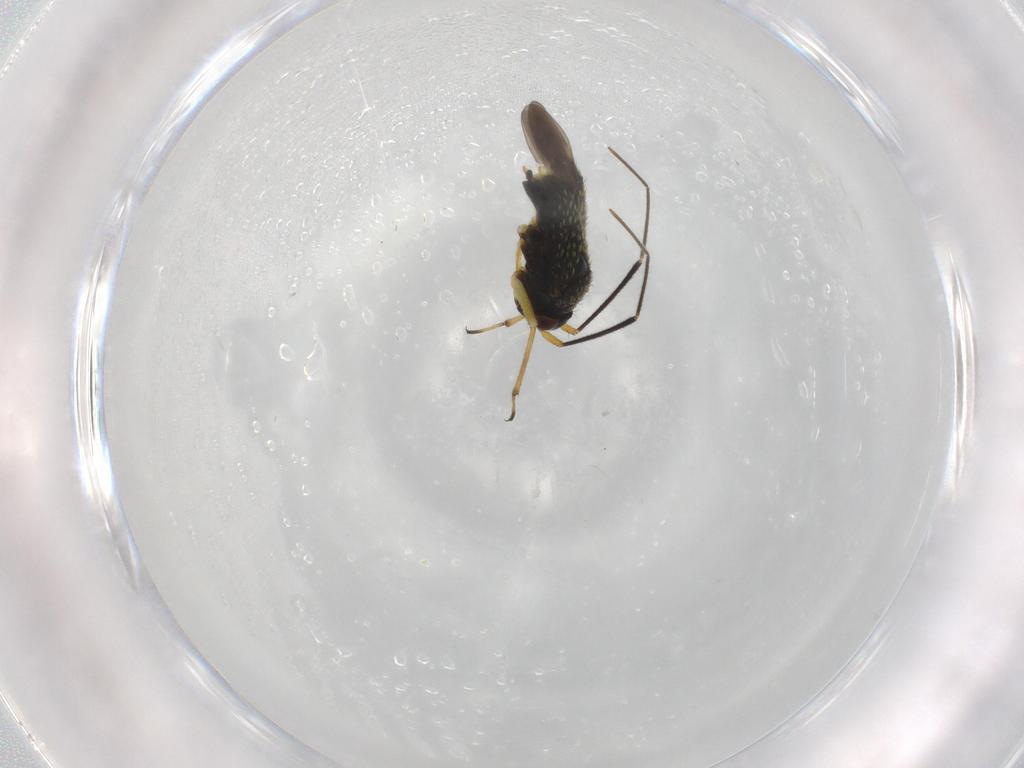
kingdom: Animalia
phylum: Arthropoda
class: Insecta
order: Hemiptera
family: Miridae
